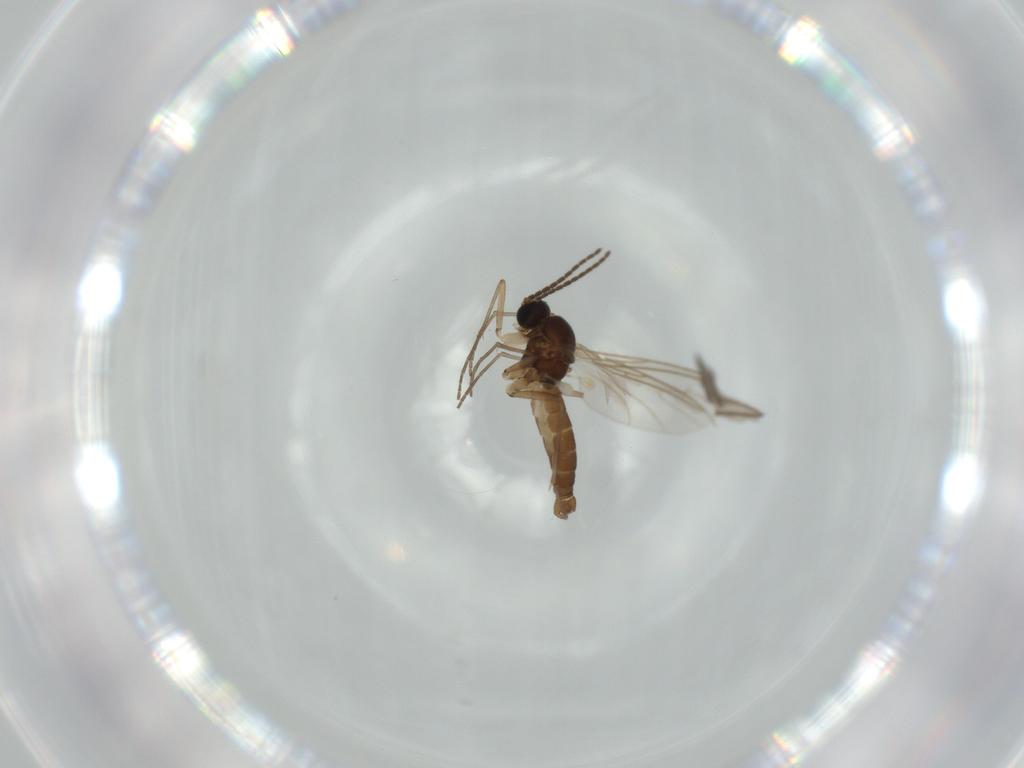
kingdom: Animalia
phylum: Arthropoda
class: Insecta
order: Diptera
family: Sciaridae
